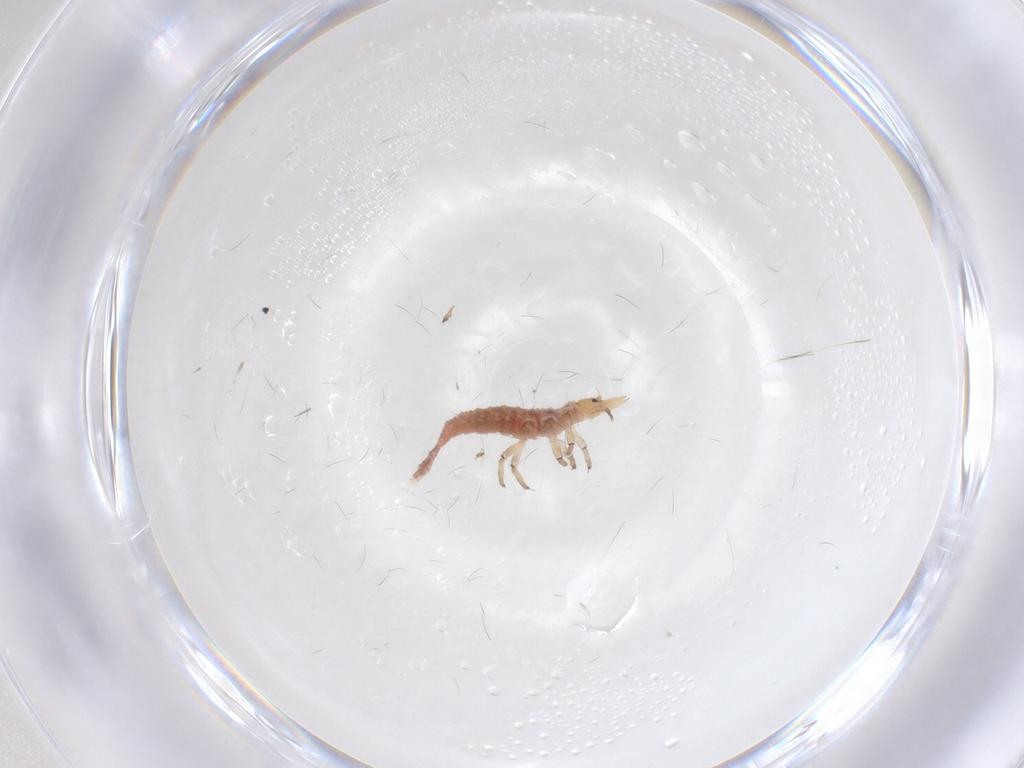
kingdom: Animalia
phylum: Arthropoda
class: Insecta
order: Neuroptera
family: Hemerobiidae
